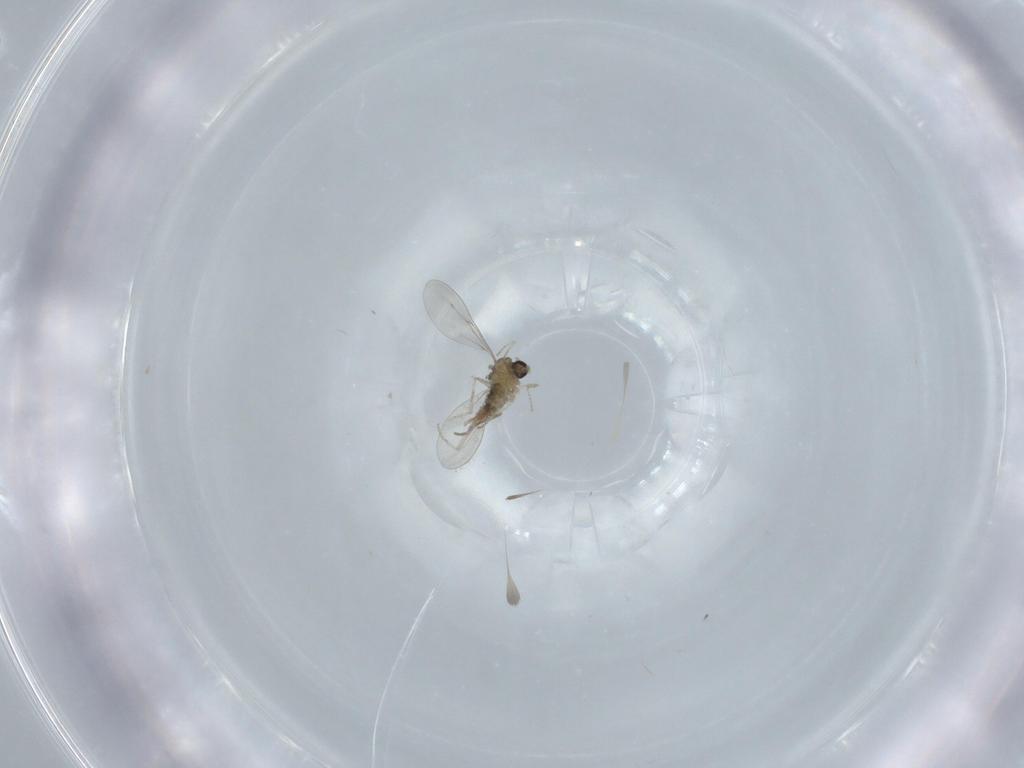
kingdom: Animalia
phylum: Arthropoda
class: Insecta
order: Diptera
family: Cecidomyiidae
